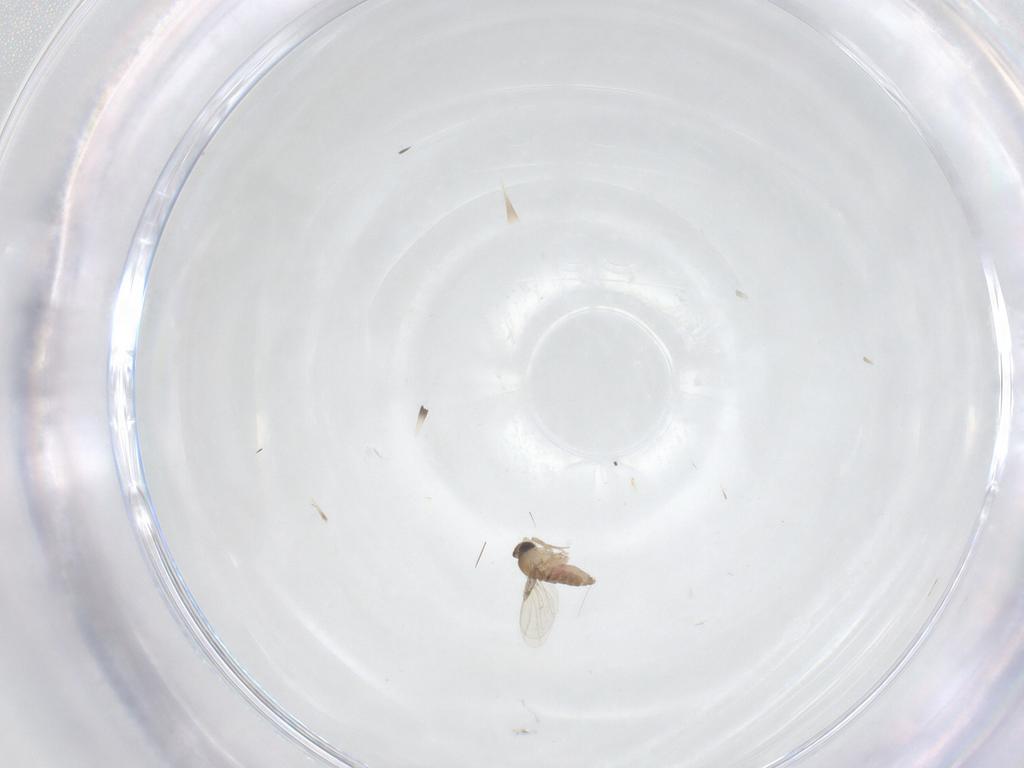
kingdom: Animalia
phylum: Arthropoda
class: Insecta
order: Diptera
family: Phoridae
